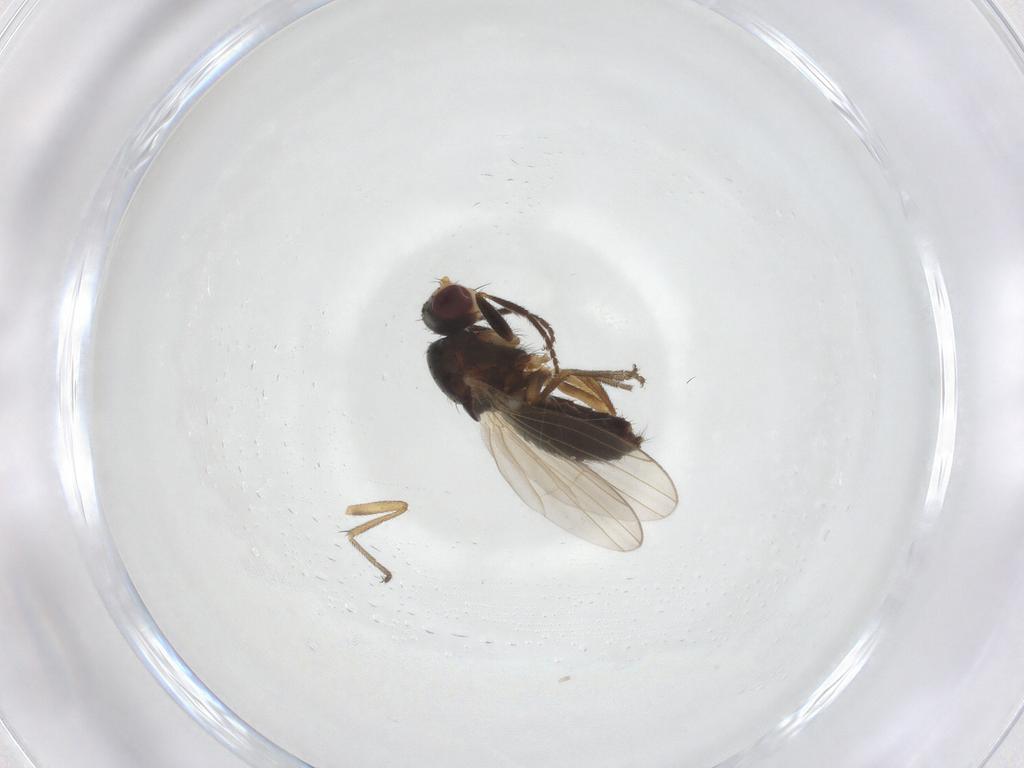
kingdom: Animalia
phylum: Arthropoda
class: Insecta
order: Diptera
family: Heleomyzidae
